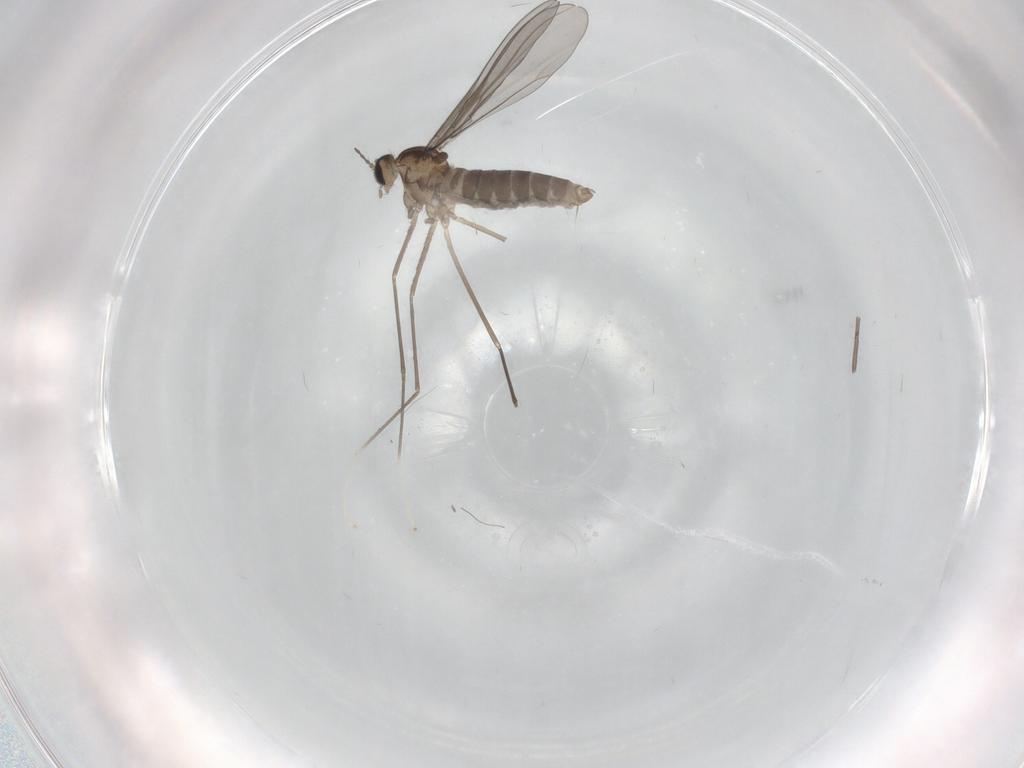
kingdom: Animalia
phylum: Arthropoda
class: Insecta
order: Diptera
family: Cecidomyiidae
